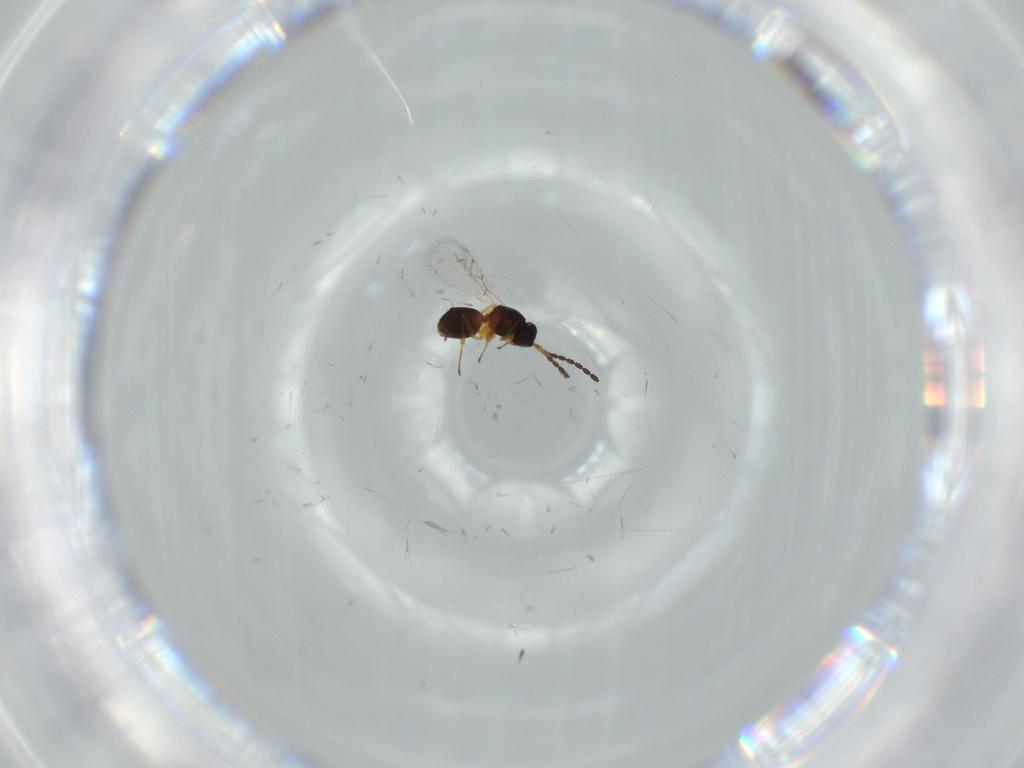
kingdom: Animalia
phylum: Arthropoda
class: Insecta
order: Hymenoptera
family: Figitidae
